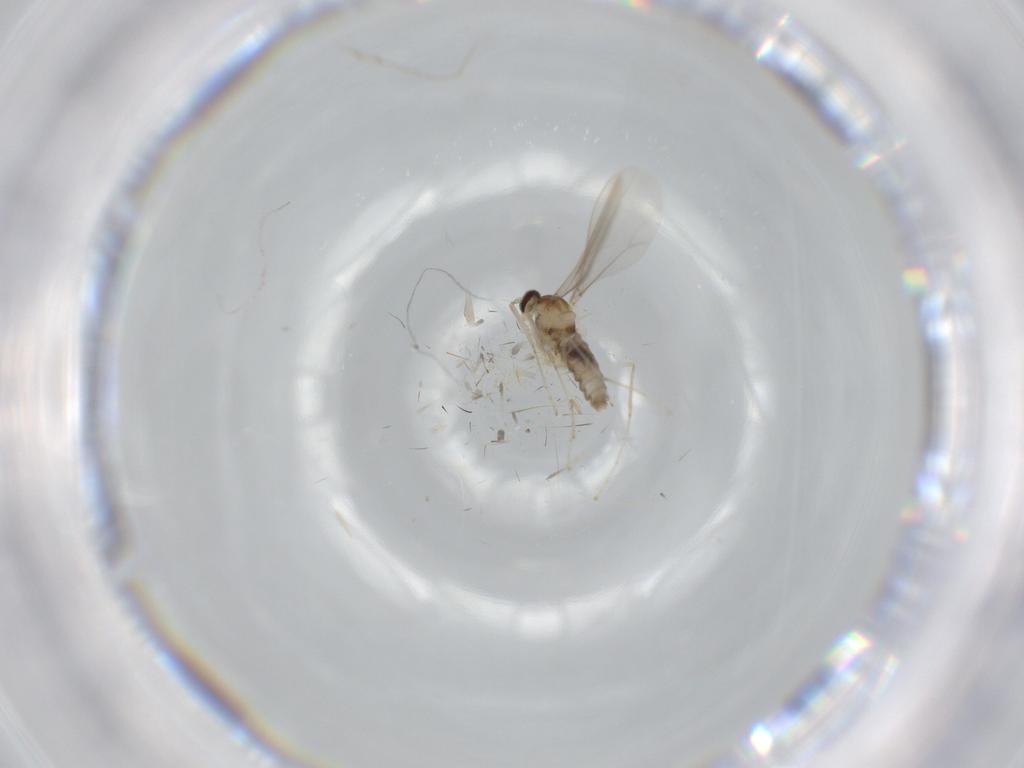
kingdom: Animalia
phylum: Arthropoda
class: Insecta
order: Diptera
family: Cecidomyiidae
